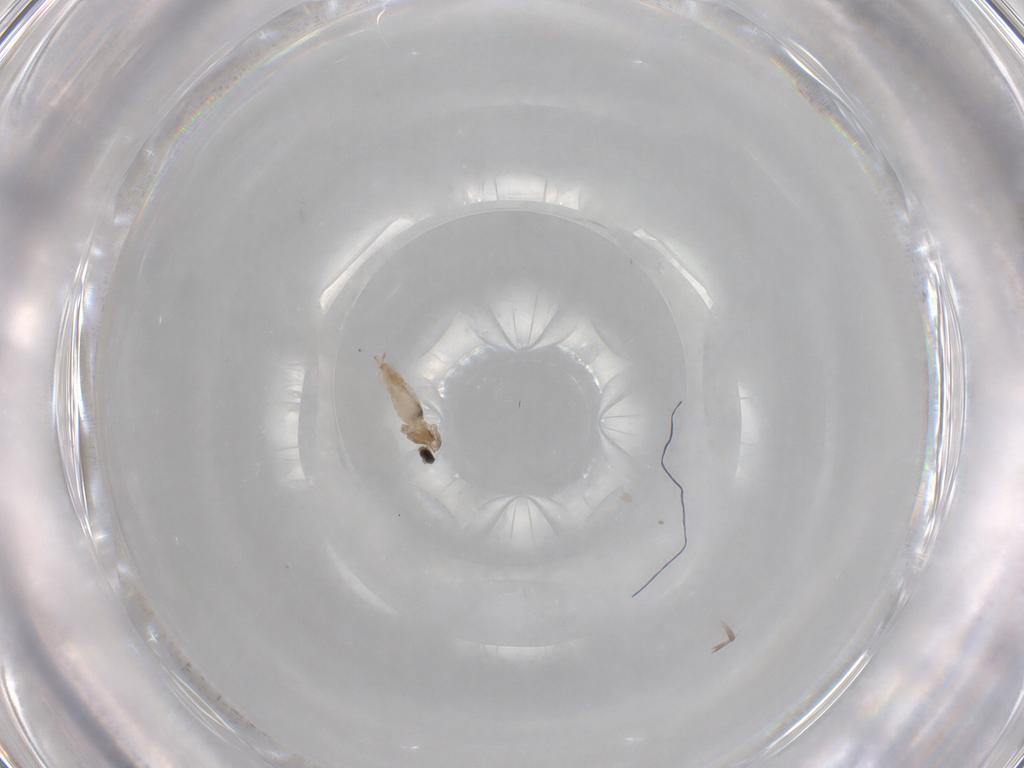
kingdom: Animalia
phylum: Arthropoda
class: Insecta
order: Diptera
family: Cecidomyiidae
